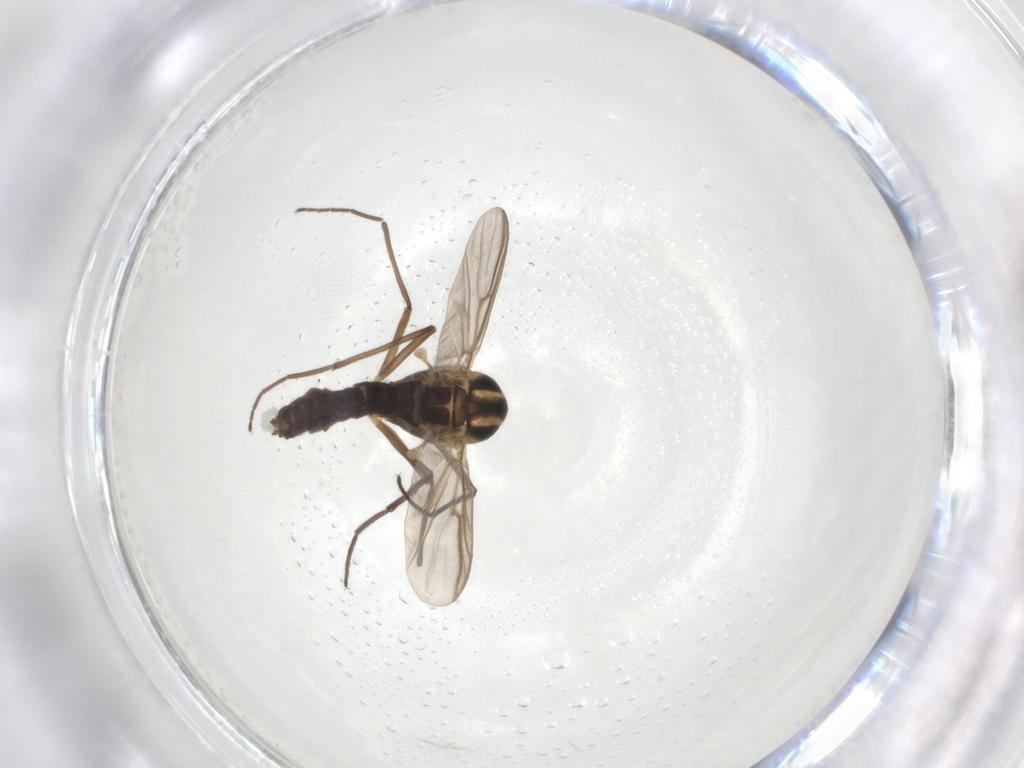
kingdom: Animalia
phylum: Arthropoda
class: Insecta
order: Diptera
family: Chironomidae
